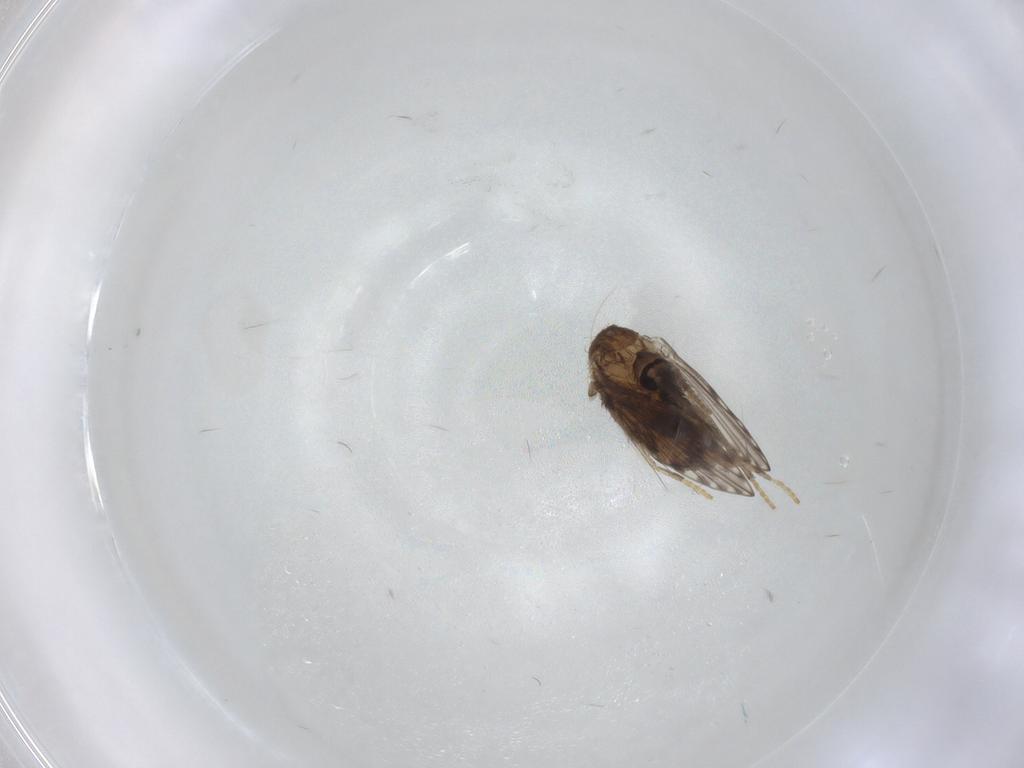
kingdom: Animalia
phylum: Arthropoda
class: Insecta
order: Diptera
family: Psychodidae
